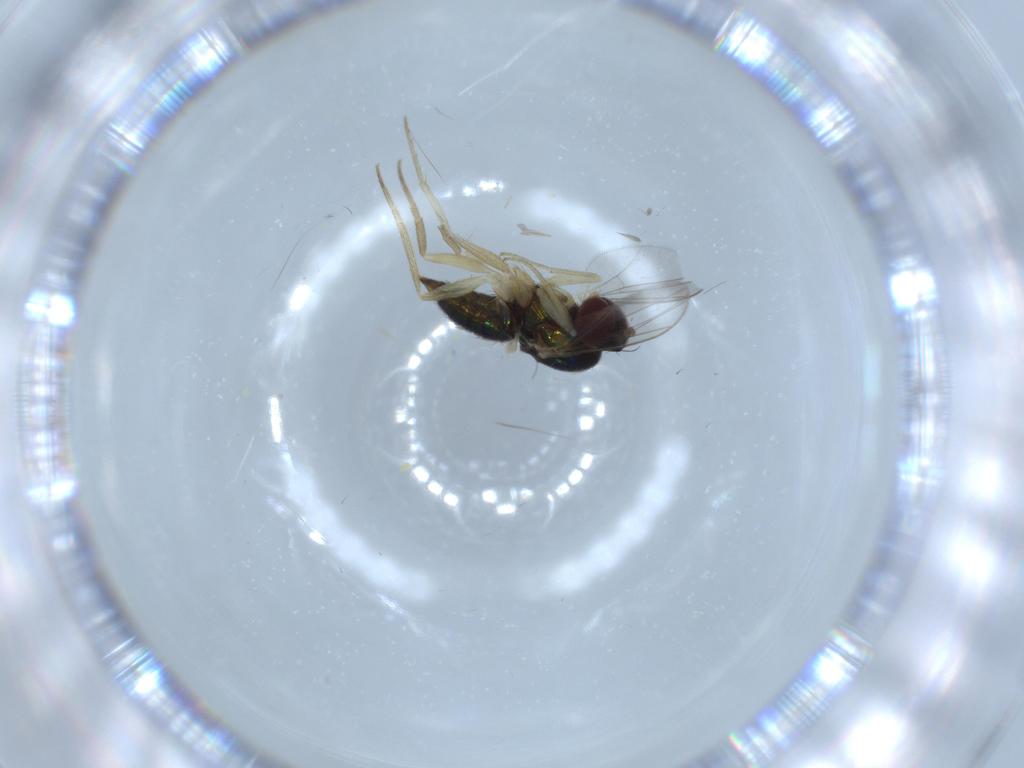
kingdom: Animalia
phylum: Arthropoda
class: Insecta
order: Diptera
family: Dolichopodidae
